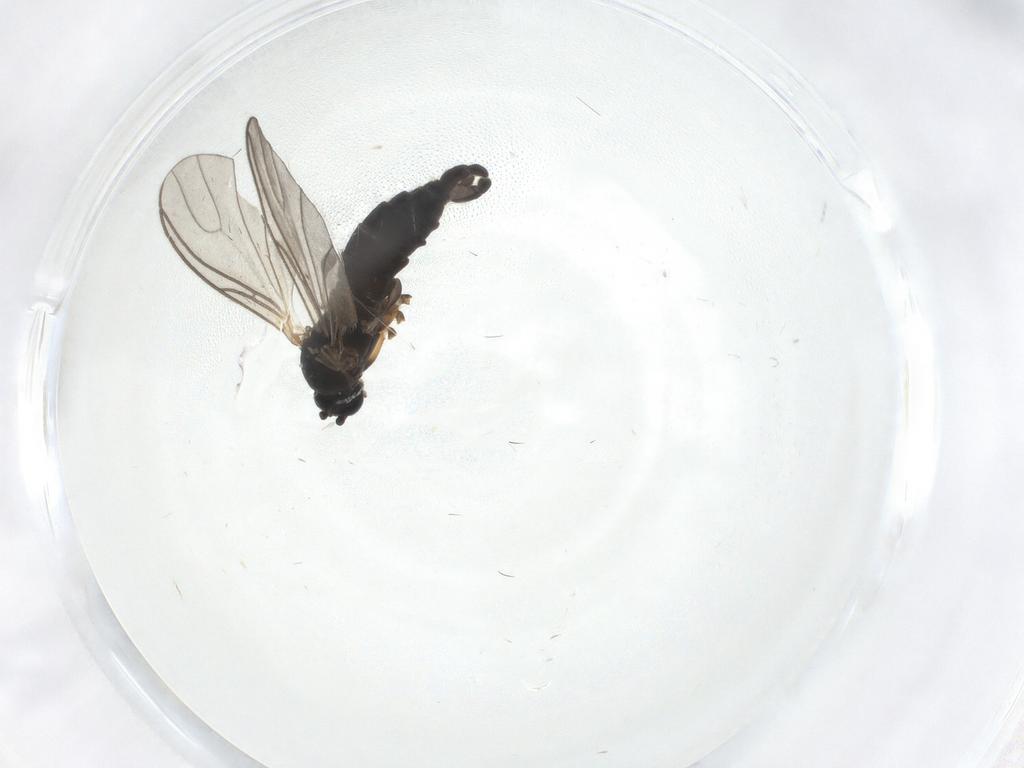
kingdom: Animalia
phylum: Arthropoda
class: Insecta
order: Diptera
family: Sciaridae
